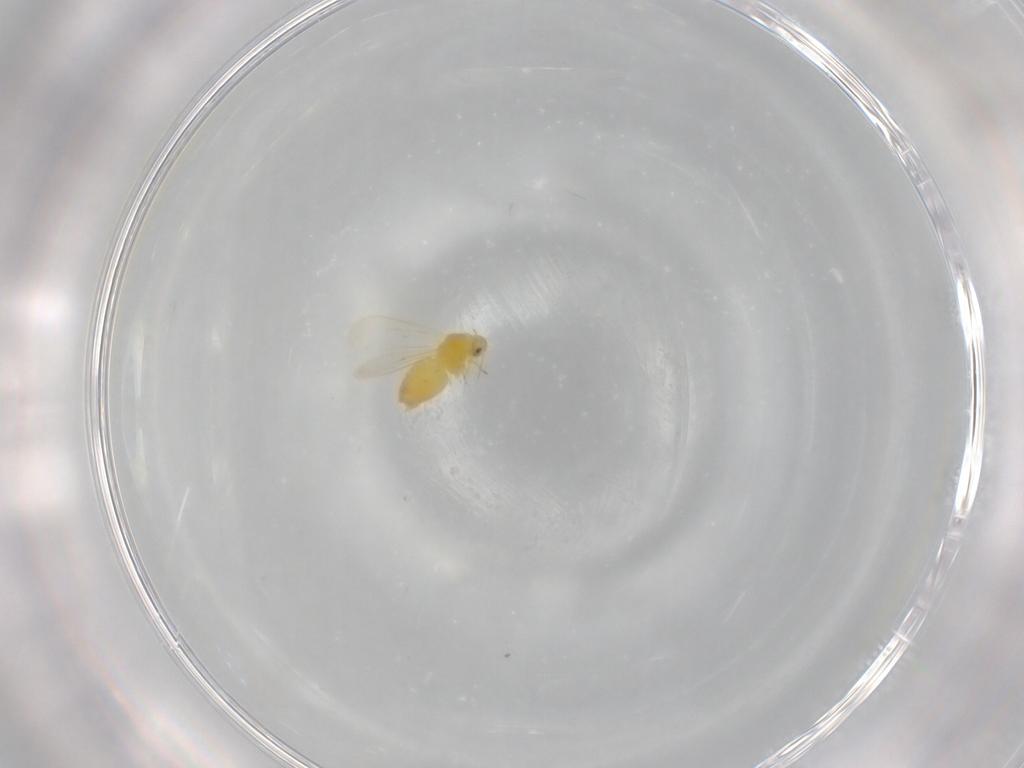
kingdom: Animalia
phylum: Arthropoda
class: Insecta
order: Hemiptera
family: Aleyrodidae
